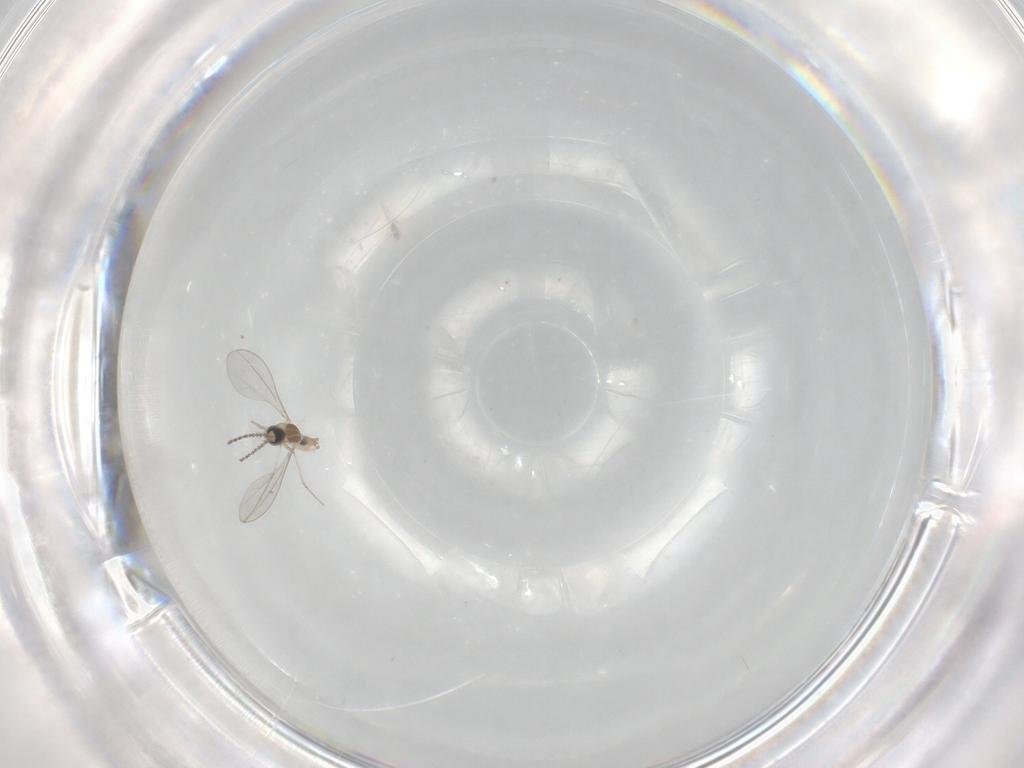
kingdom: Animalia
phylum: Arthropoda
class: Insecta
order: Diptera
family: Cecidomyiidae
